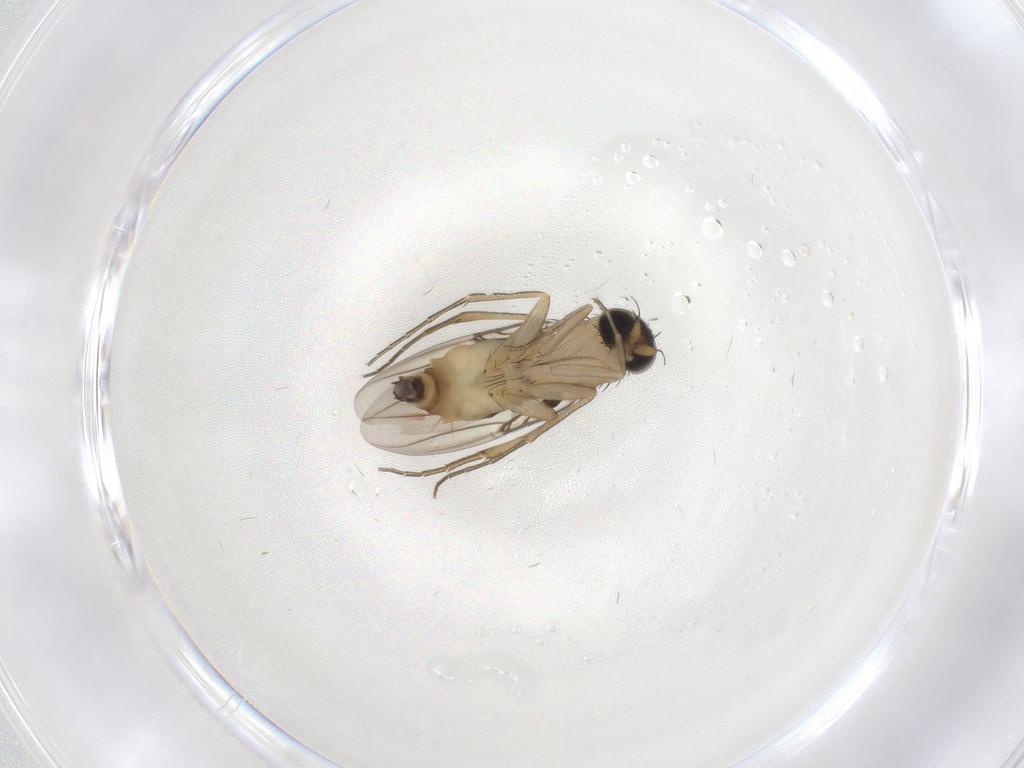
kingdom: Animalia
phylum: Arthropoda
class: Insecta
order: Diptera
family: Phoridae
